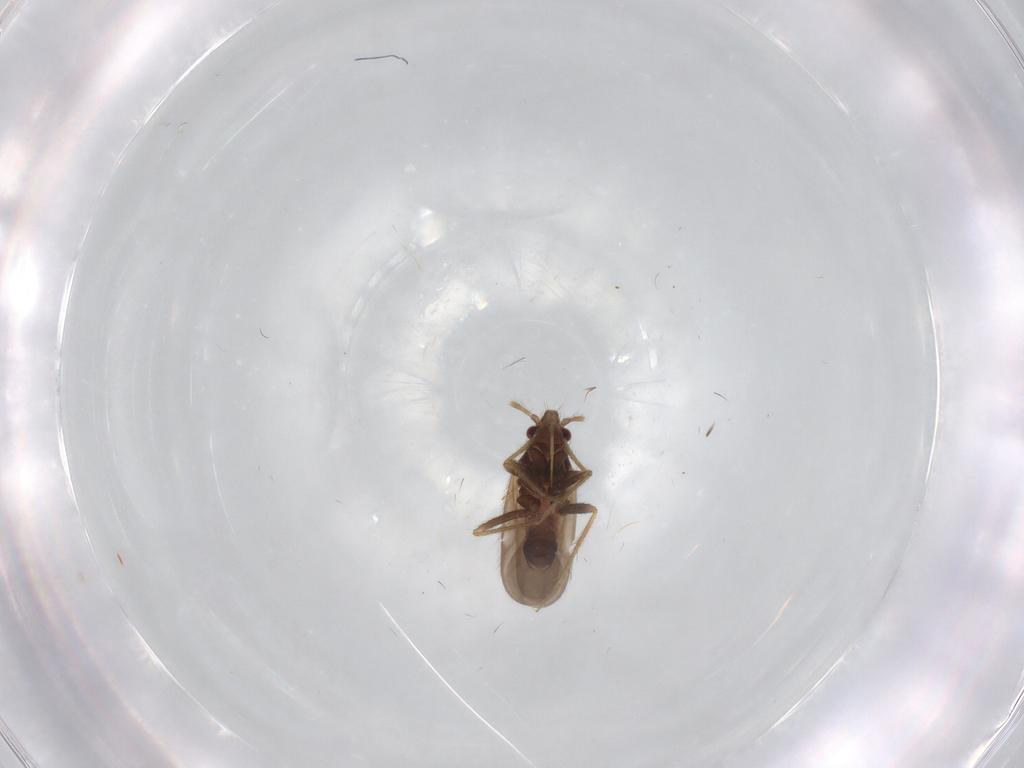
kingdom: Animalia
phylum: Arthropoda
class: Insecta
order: Hemiptera
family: Ceratocombidae
